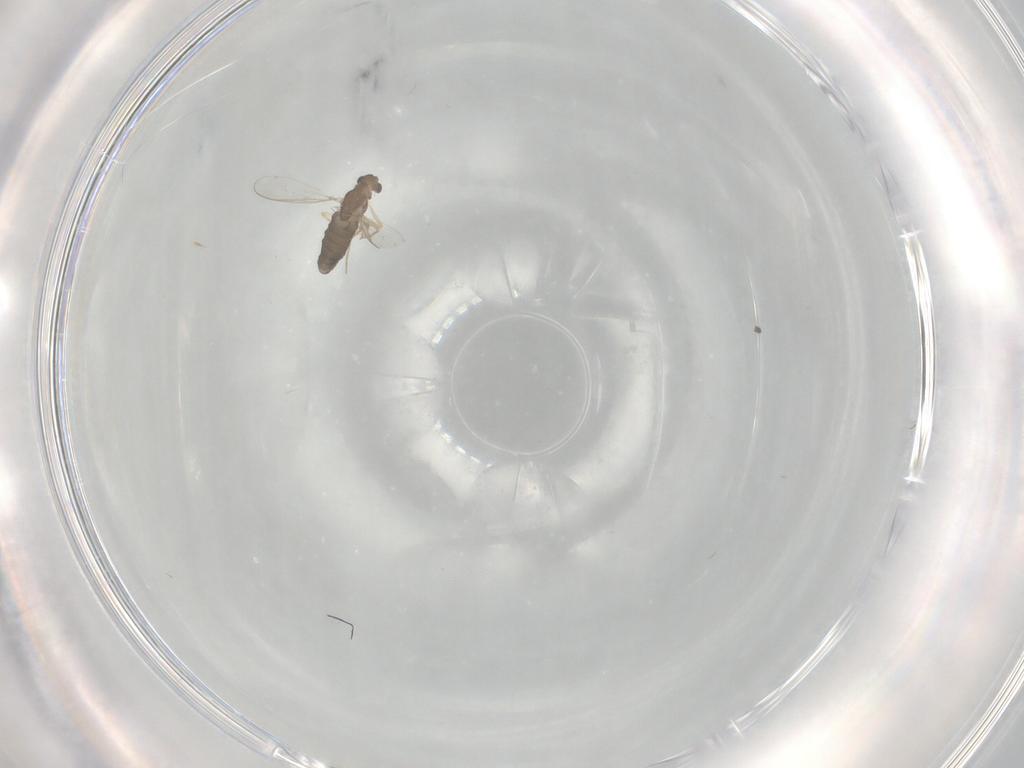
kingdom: Animalia
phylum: Arthropoda
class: Insecta
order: Diptera
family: Chironomidae
